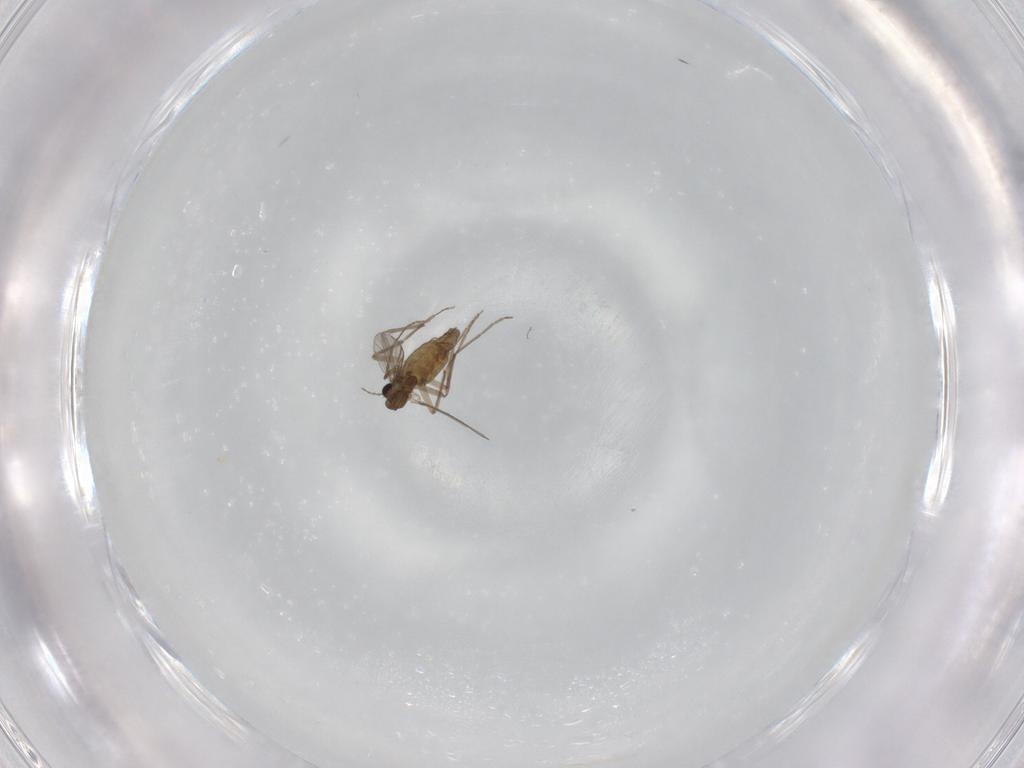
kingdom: Animalia
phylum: Arthropoda
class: Insecta
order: Diptera
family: Chironomidae
